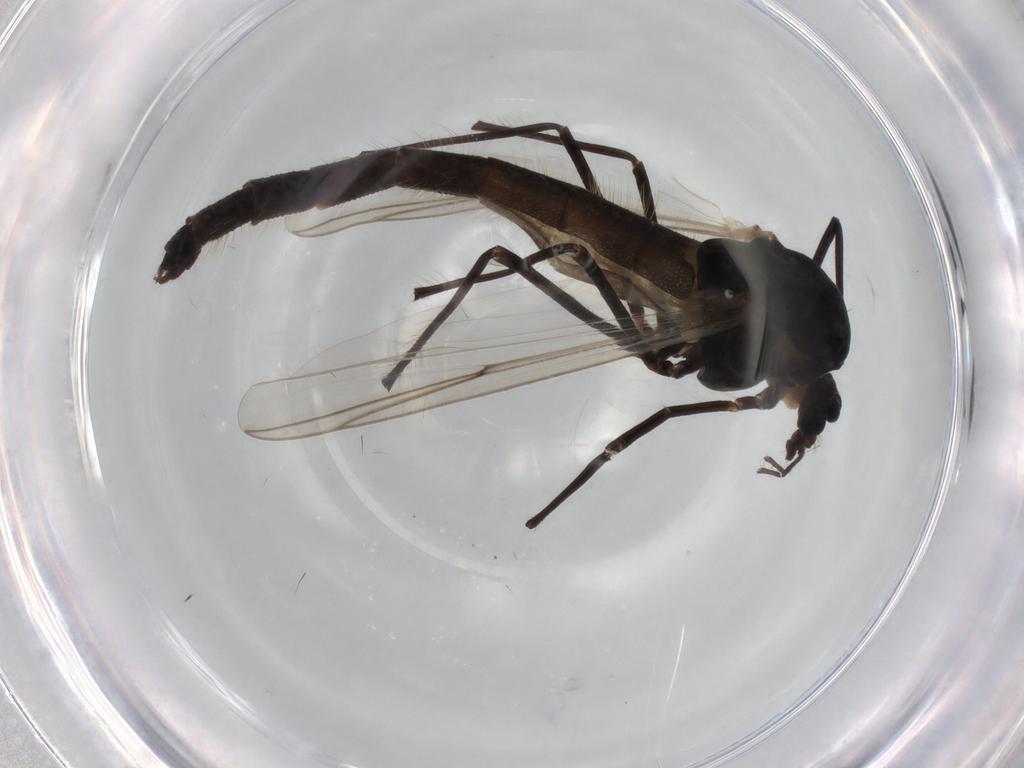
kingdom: Animalia
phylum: Arthropoda
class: Insecta
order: Diptera
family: Chironomidae
